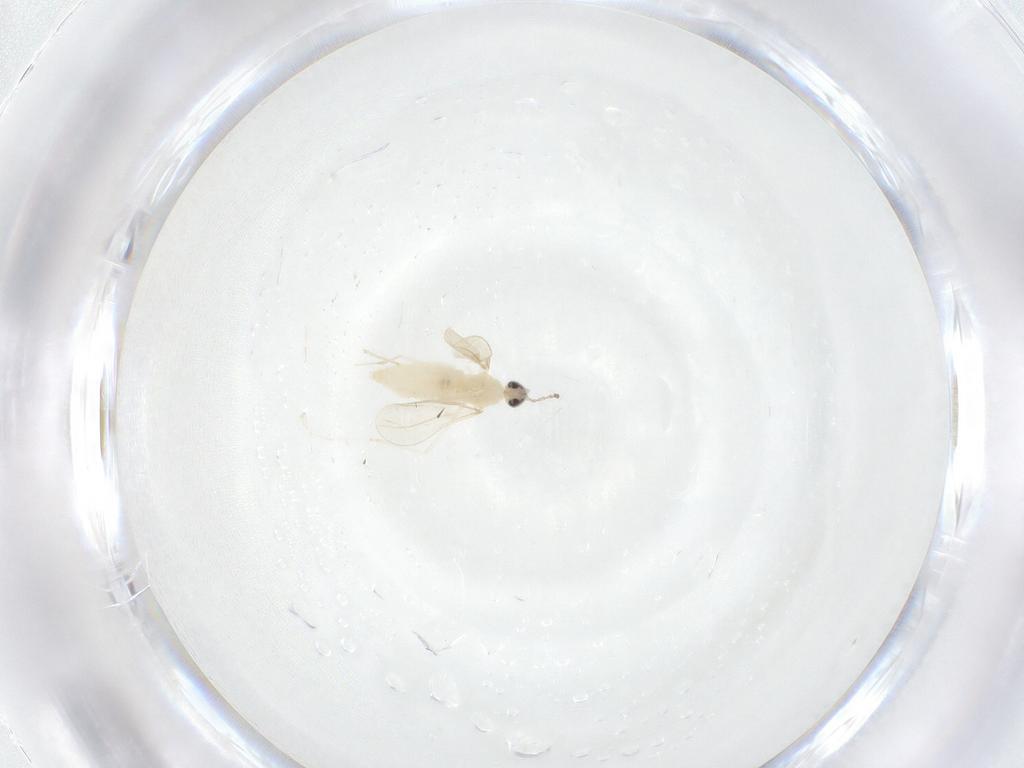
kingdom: Animalia
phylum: Arthropoda
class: Insecta
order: Diptera
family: Cecidomyiidae
